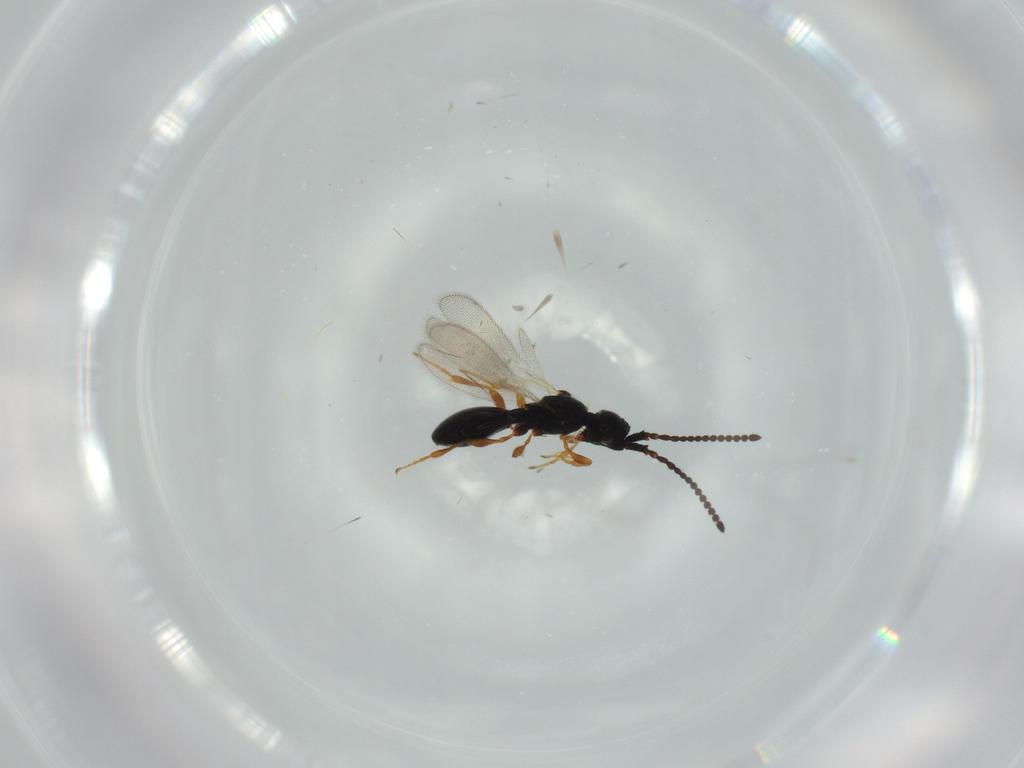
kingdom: Animalia
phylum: Arthropoda
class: Insecta
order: Hymenoptera
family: Diapriidae
